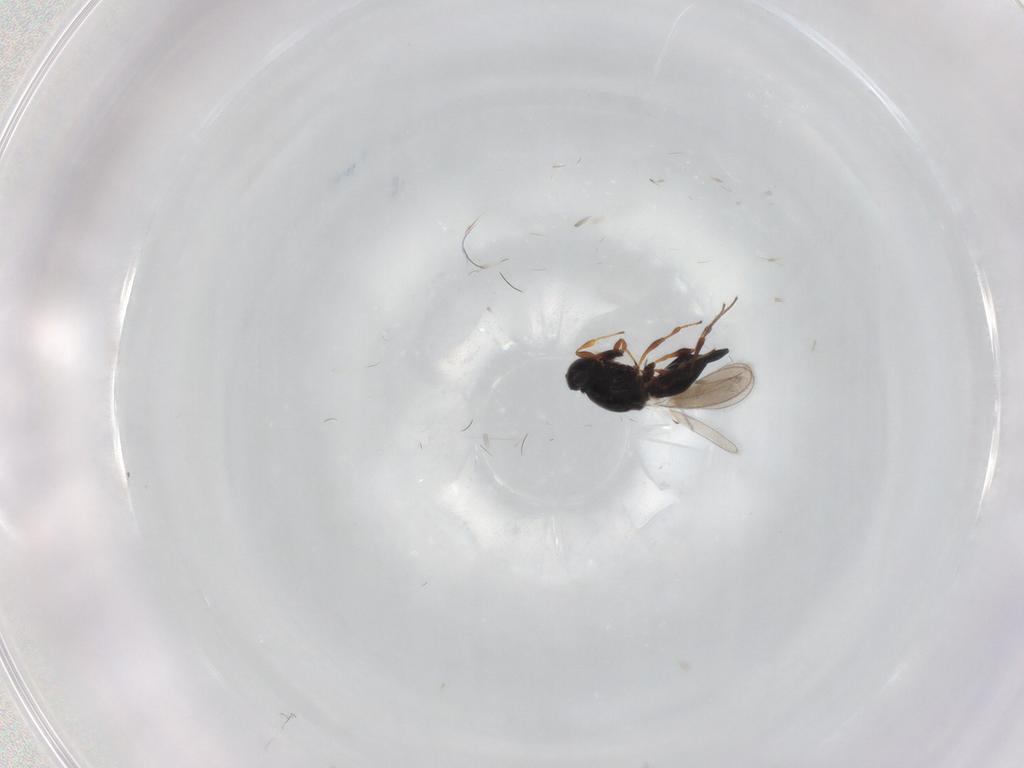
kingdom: Animalia
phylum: Arthropoda
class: Insecta
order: Hymenoptera
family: Platygastridae
